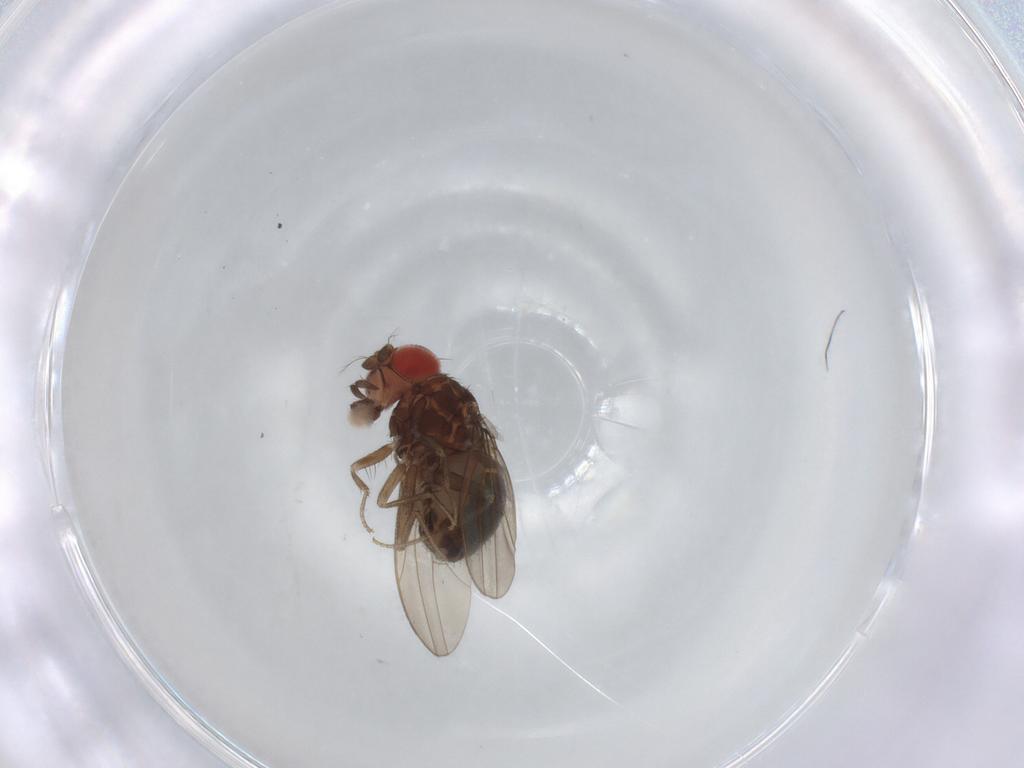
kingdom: Animalia
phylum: Arthropoda
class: Insecta
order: Diptera
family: Drosophilidae
